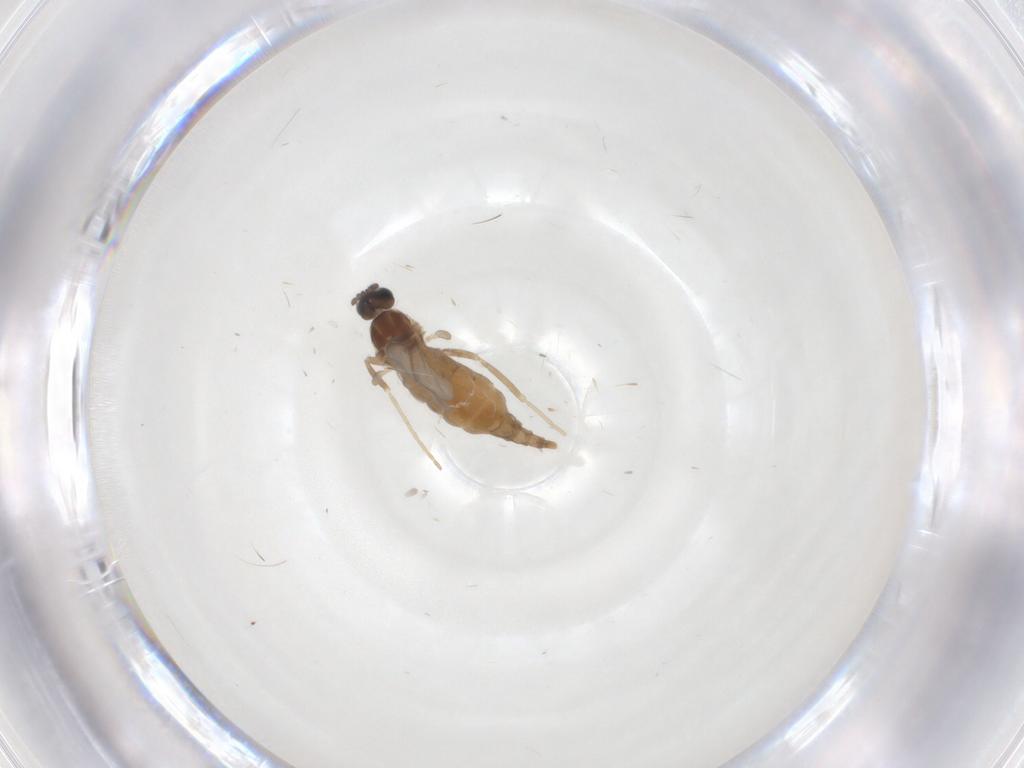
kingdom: Animalia
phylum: Arthropoda
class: Insecta
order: Diptera
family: Cecidomyiidae
